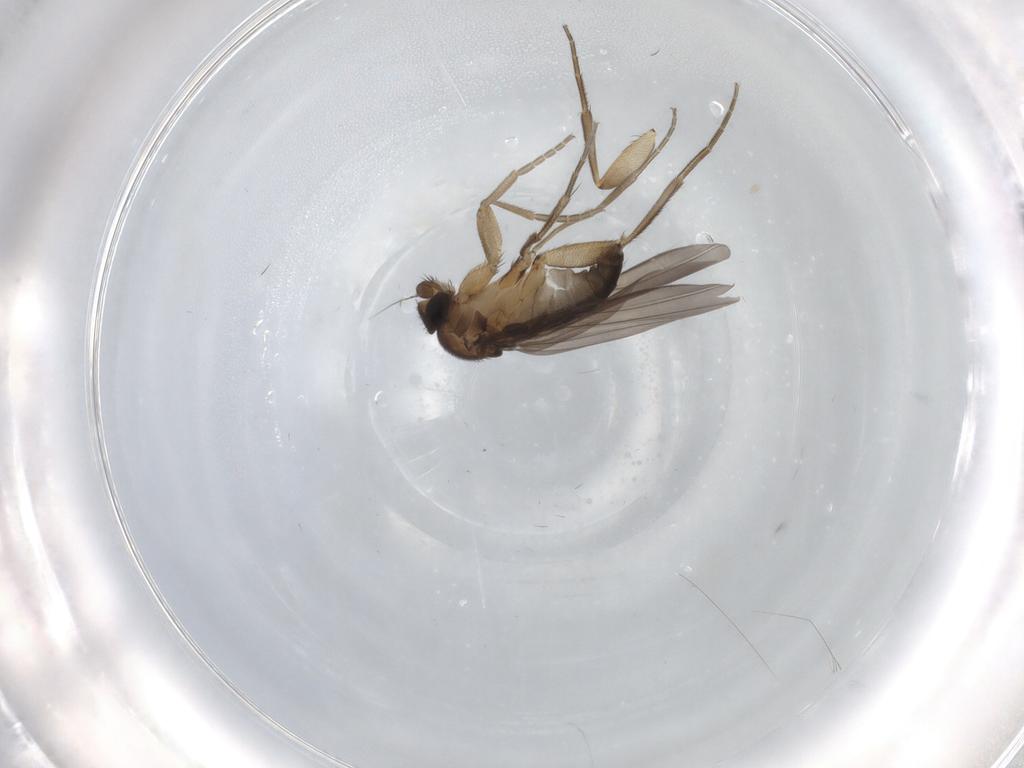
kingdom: Animalia
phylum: Arthropoda
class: Insecta
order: Diptera
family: Phoridae
